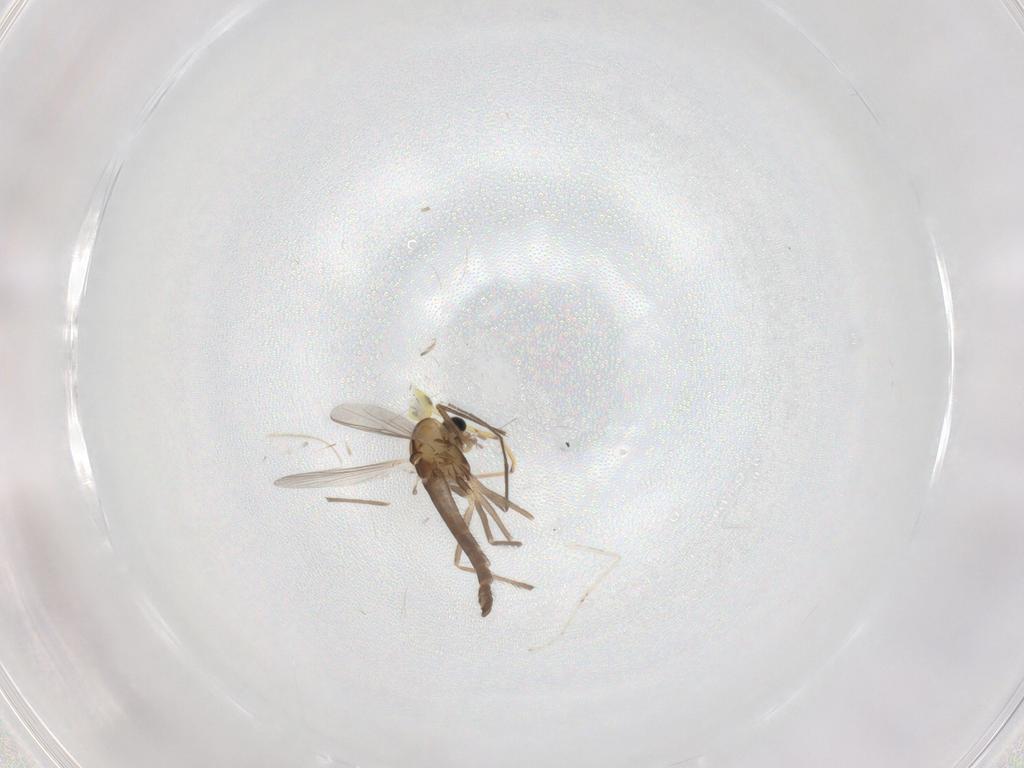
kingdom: Animalia
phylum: Arthropoda
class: Insecta
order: Diptera
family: Chironomidae
